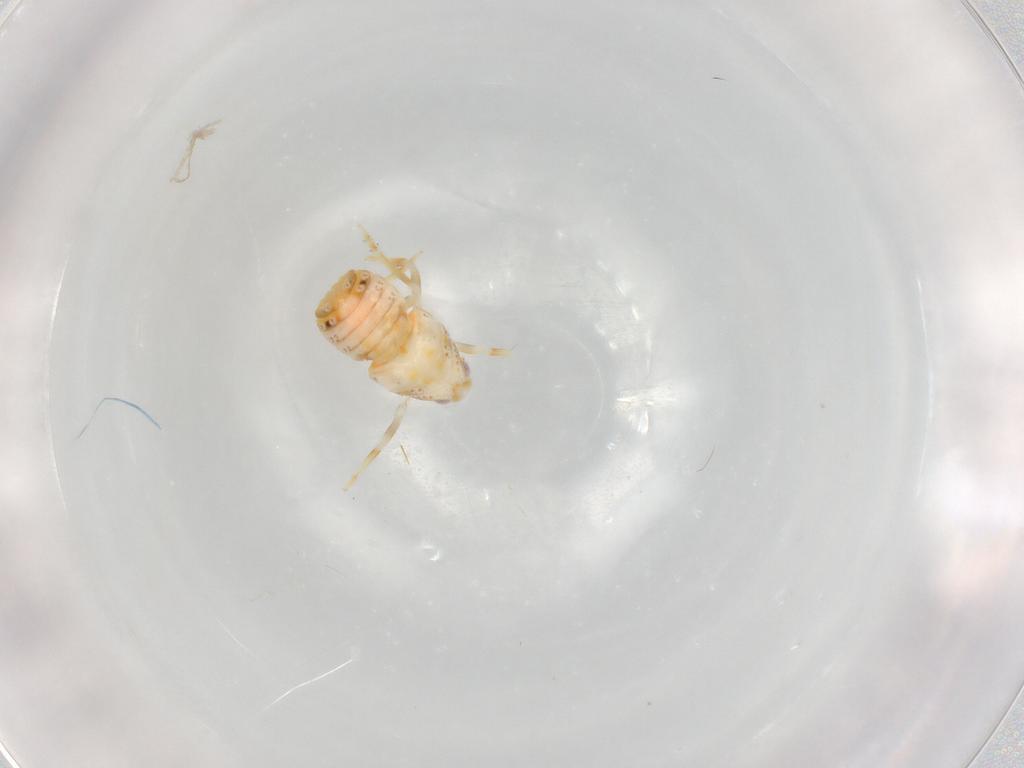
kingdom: Animalia
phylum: Arthropoda
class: Insecta
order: Hemiptera
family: Flatidae
